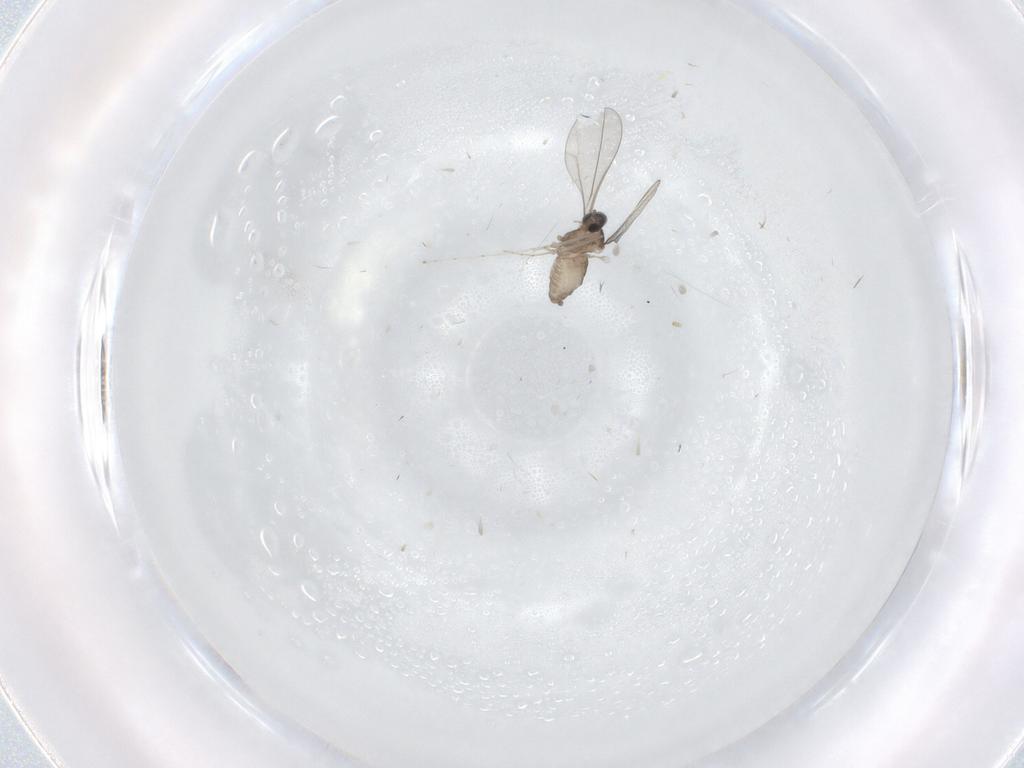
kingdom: Animalia
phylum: Arthropoda
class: Insecta
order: Diptera
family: Cecidomyiidae
